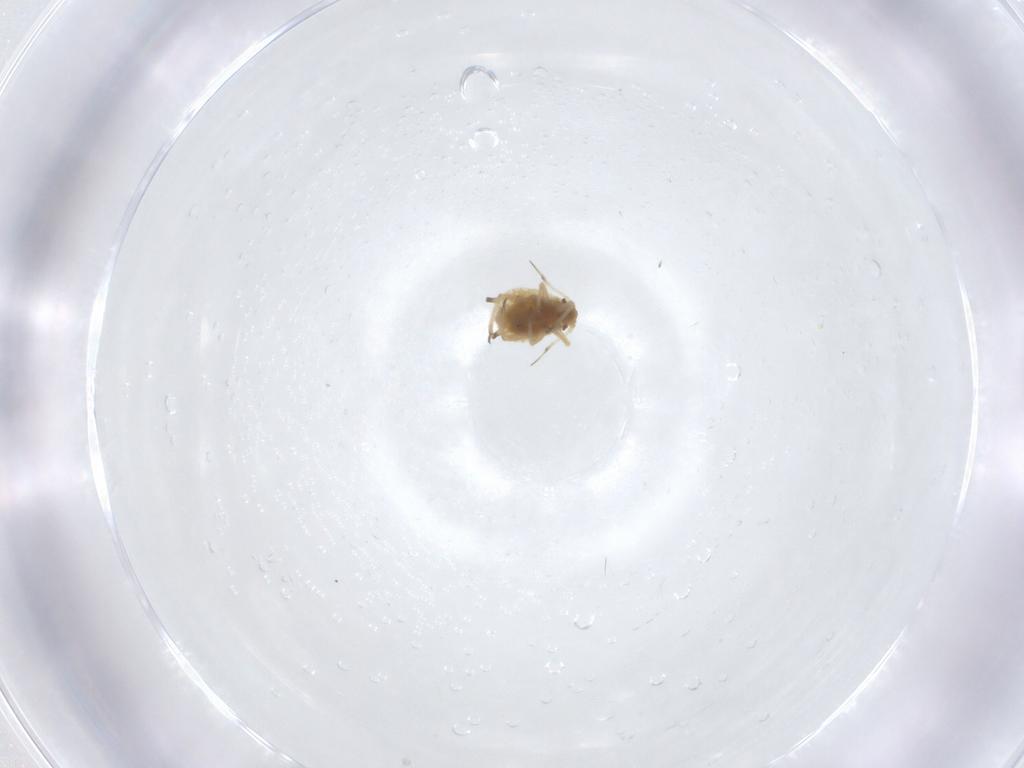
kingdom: Animalia
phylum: Arthropoda
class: Insecta
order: Hemiptera
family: Aphididae
